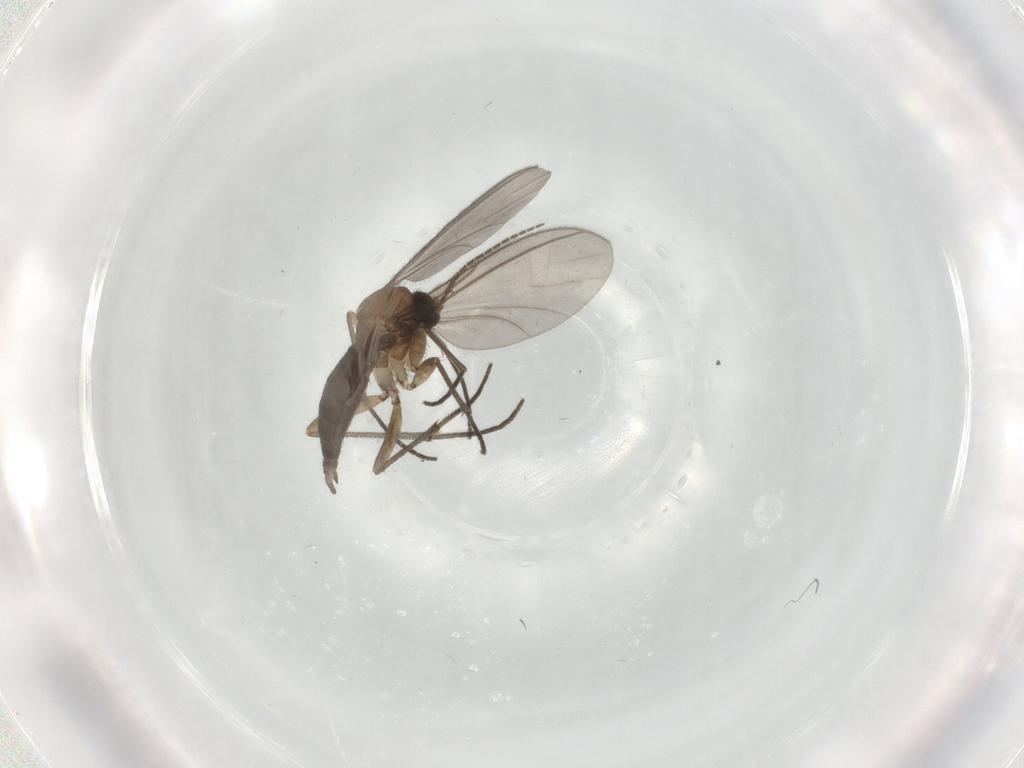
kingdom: Animalia
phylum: Arthropoda
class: Insecta
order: Diptera
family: Sciaridae
